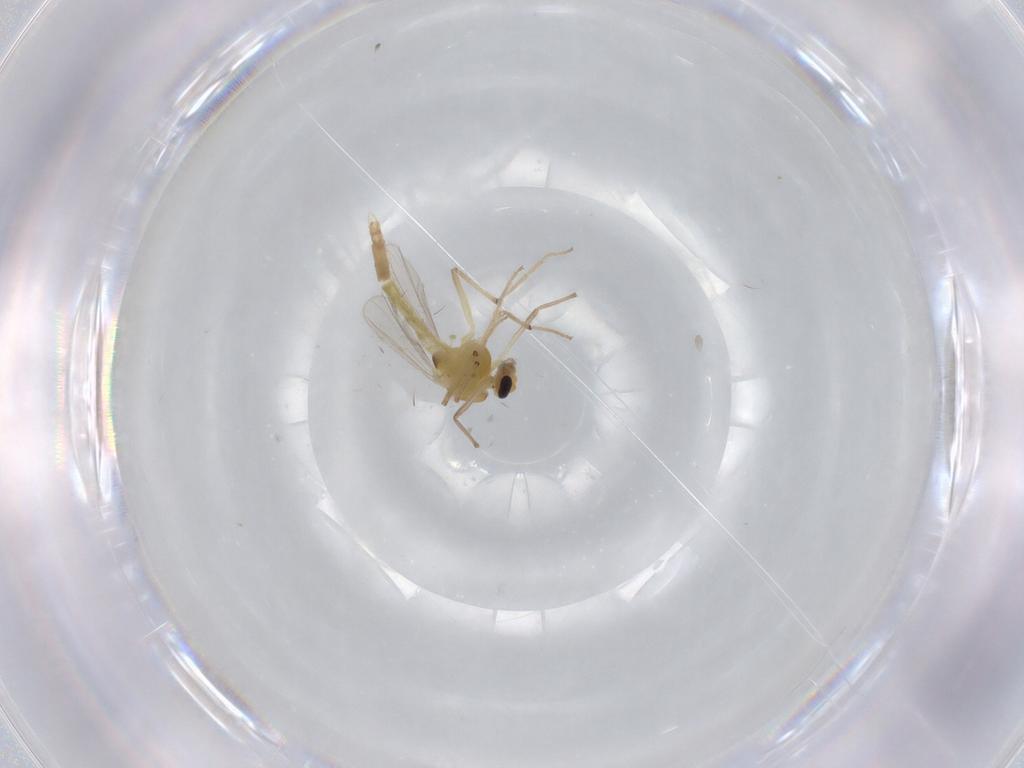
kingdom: Animalia
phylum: Arthropoda
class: Insecta
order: Diptera
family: Chironomidae
